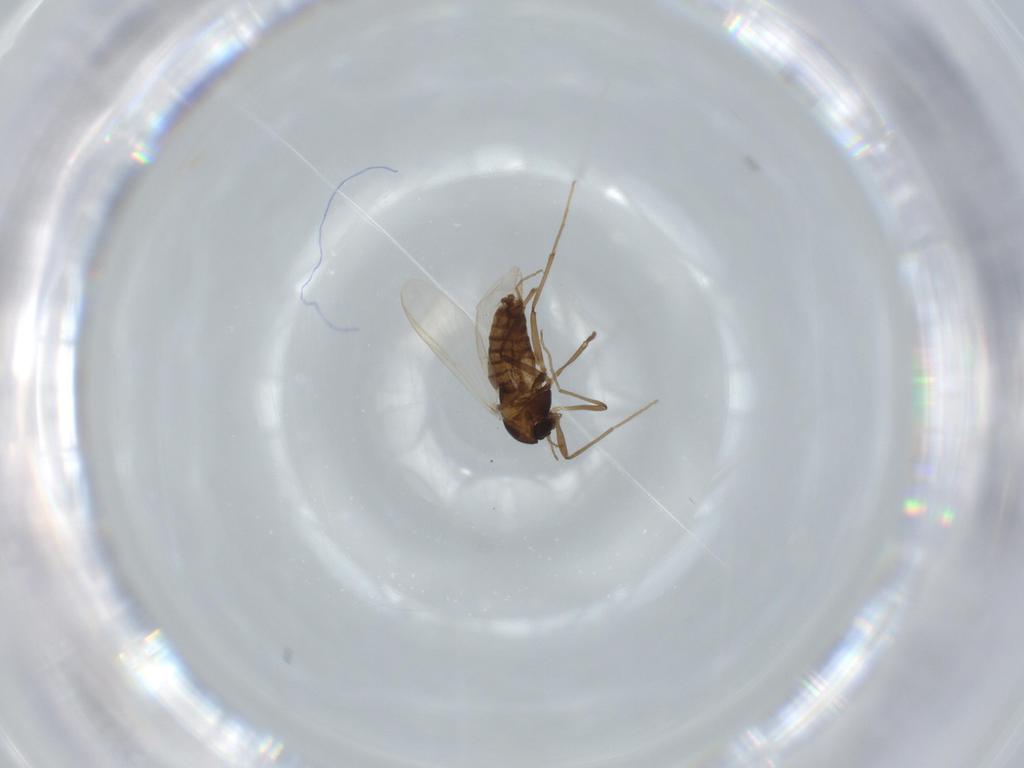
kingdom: Animalia
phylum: Arthropoda
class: Insecta
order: Diptera
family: Chironomidae
